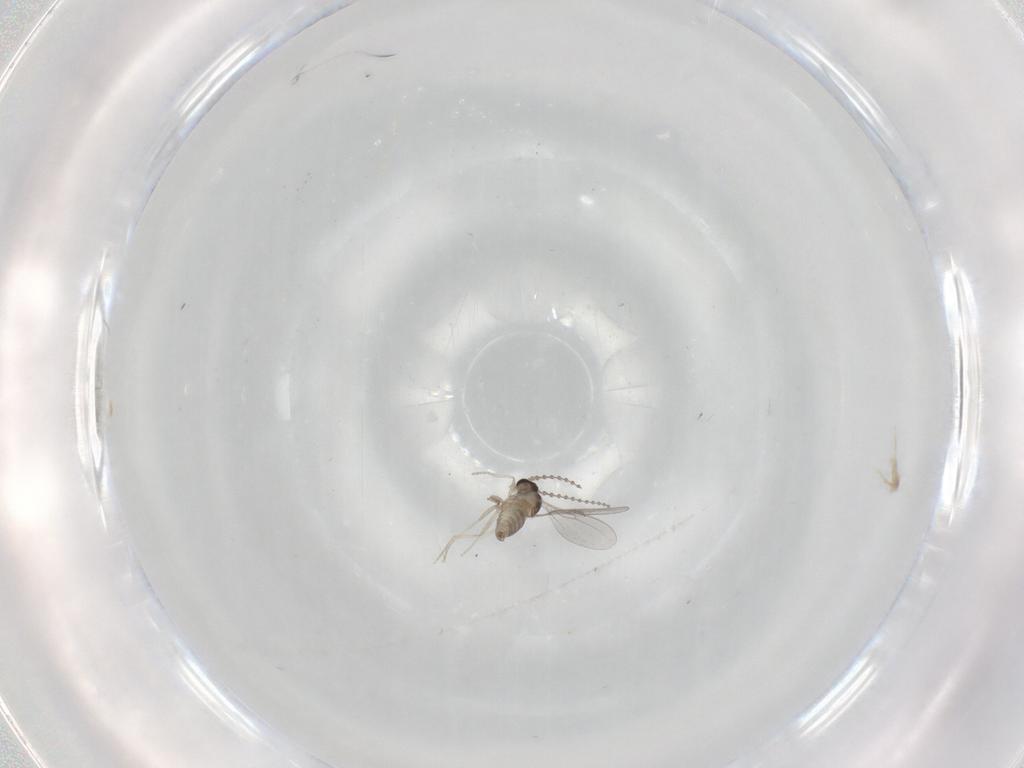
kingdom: Animalia
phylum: Arthropoda
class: Insecta
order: Diptera
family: Cecidomyiidae
